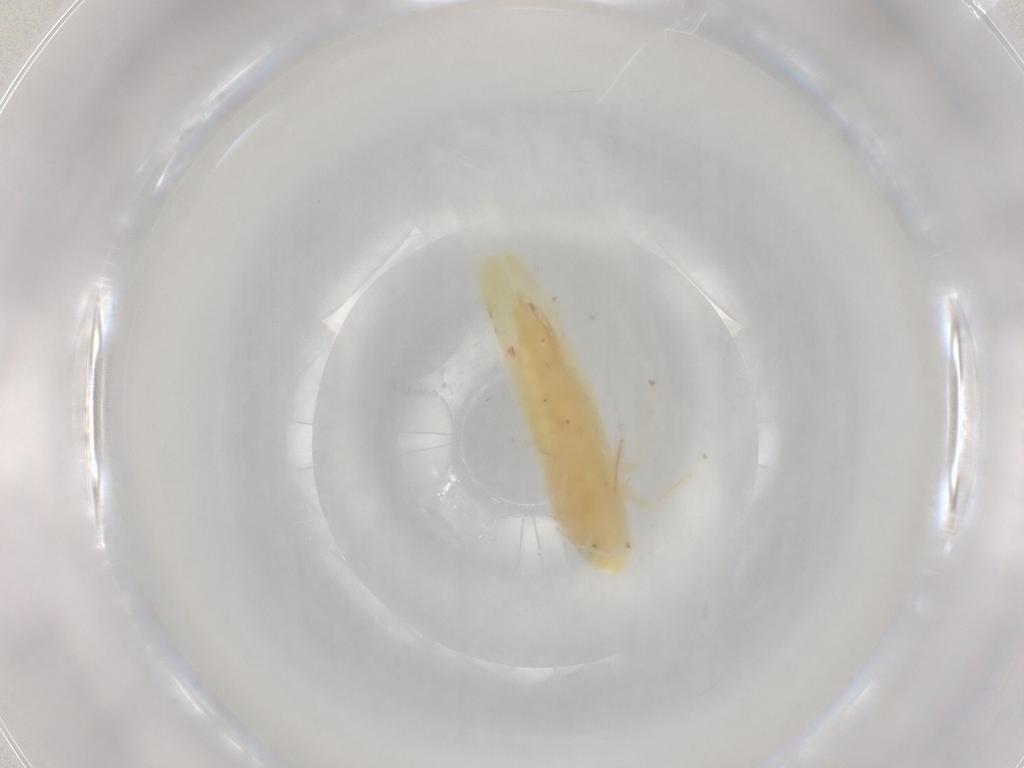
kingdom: Animalia
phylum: Arthropoda
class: Insecta
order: Hemiptera
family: Cicadellidae
